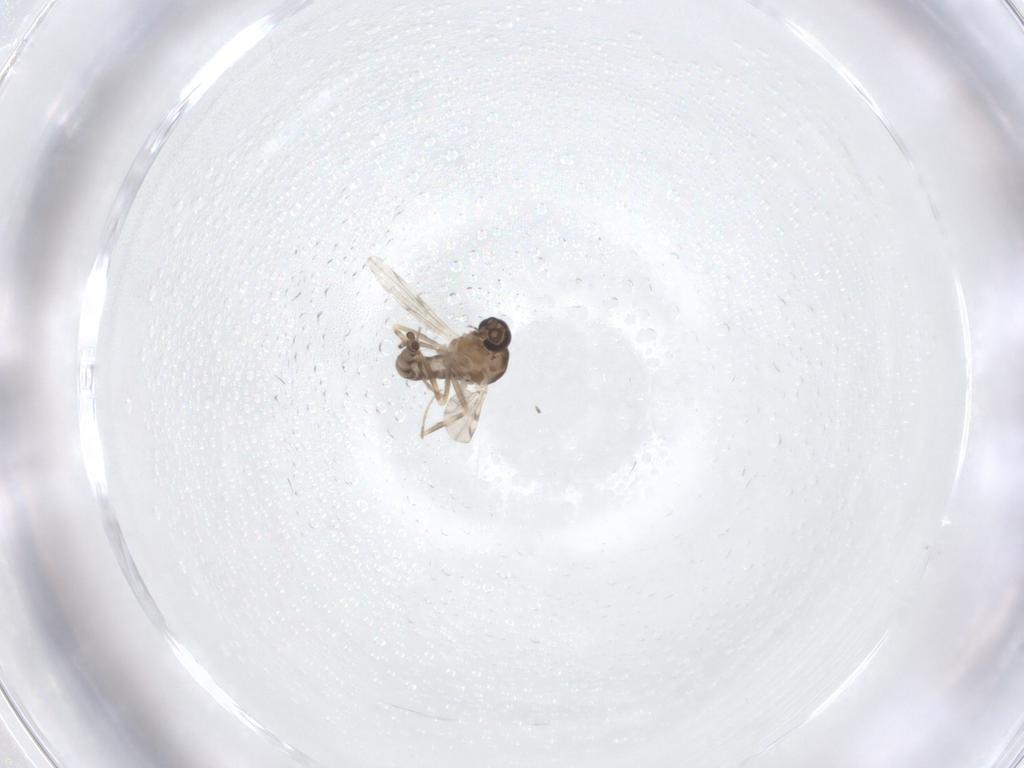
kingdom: Animalia
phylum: Arthropoda
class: Insecta
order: Diptera
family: Ceratopogonidae
